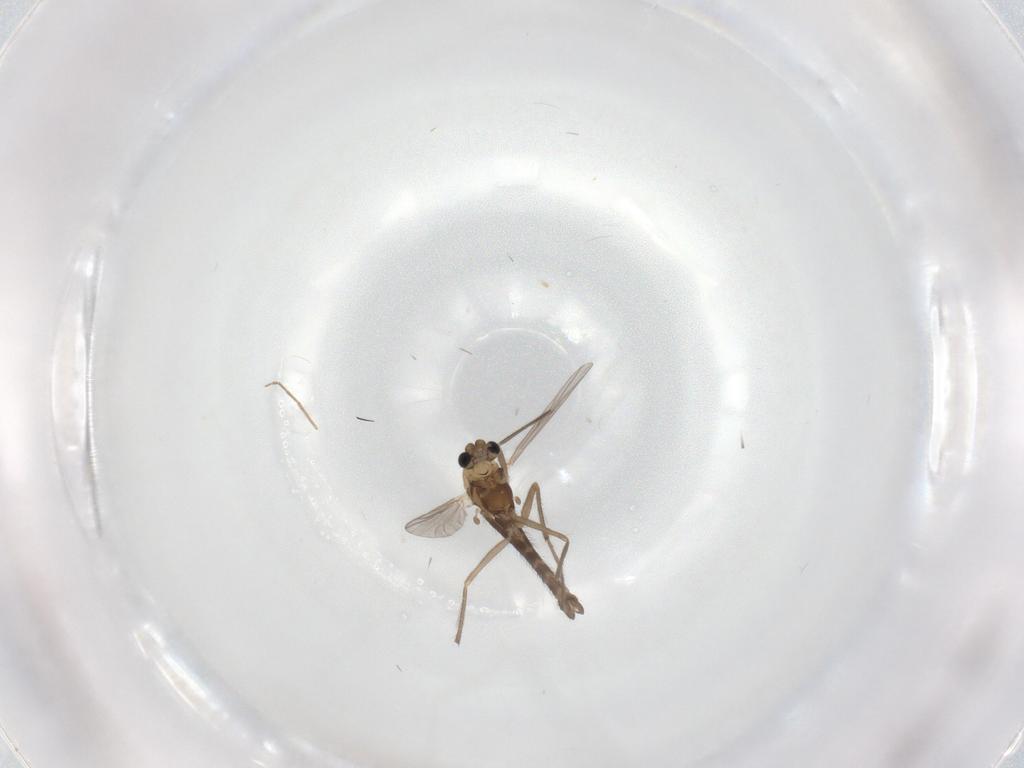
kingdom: Animalia
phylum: Arthropoda
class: Insecta
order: Diptera
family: Chironomidae
